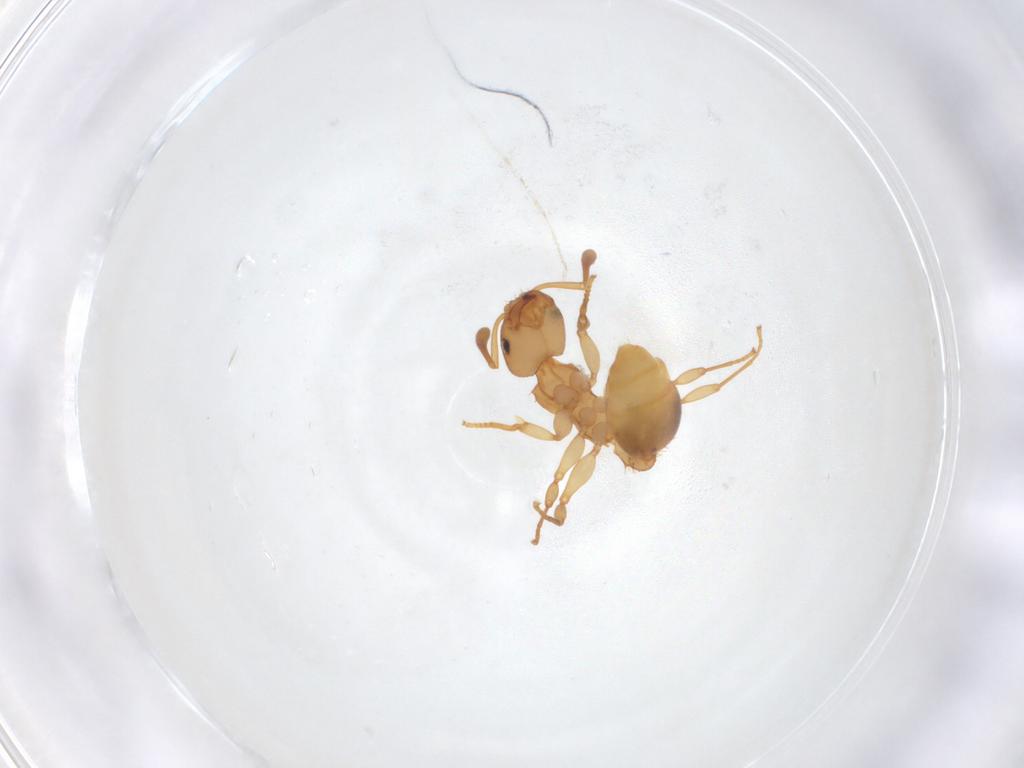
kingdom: Animalia
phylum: Arthropoda
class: Insecta
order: Hymenoptera
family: Formicidae
